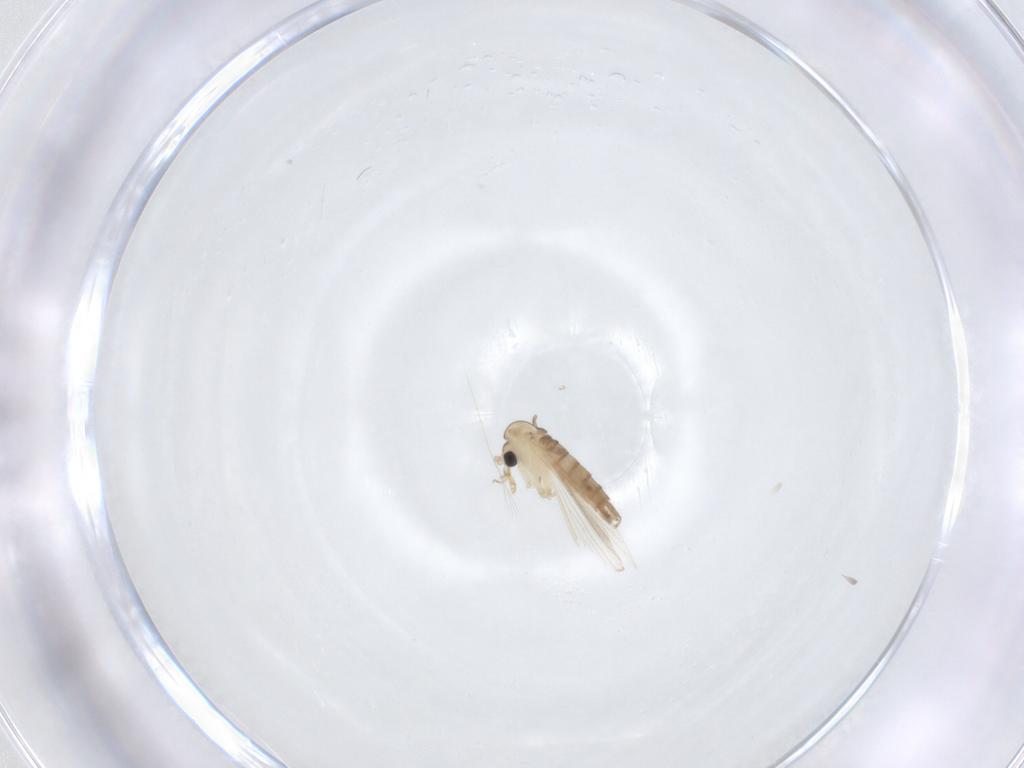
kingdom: Animalia
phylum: Arthropoda
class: Insecta
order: Diptera
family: Psychodidae
